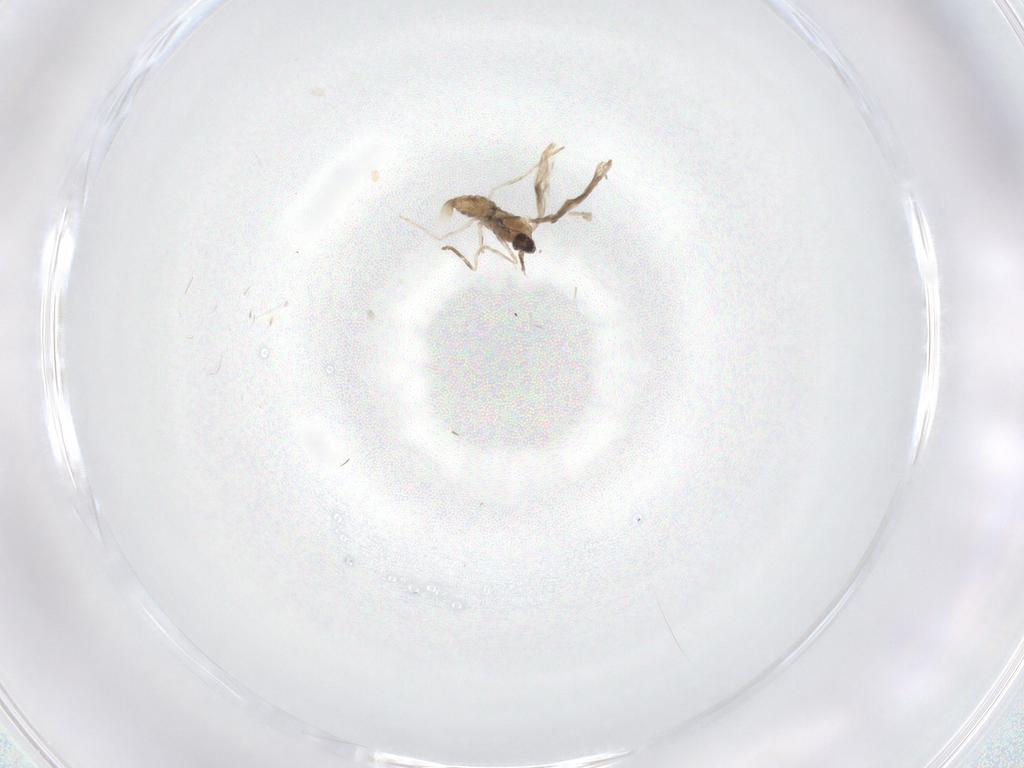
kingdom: Animalia
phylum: Arthropoda
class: Insecta
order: Diptera
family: Cecidomyiidae
